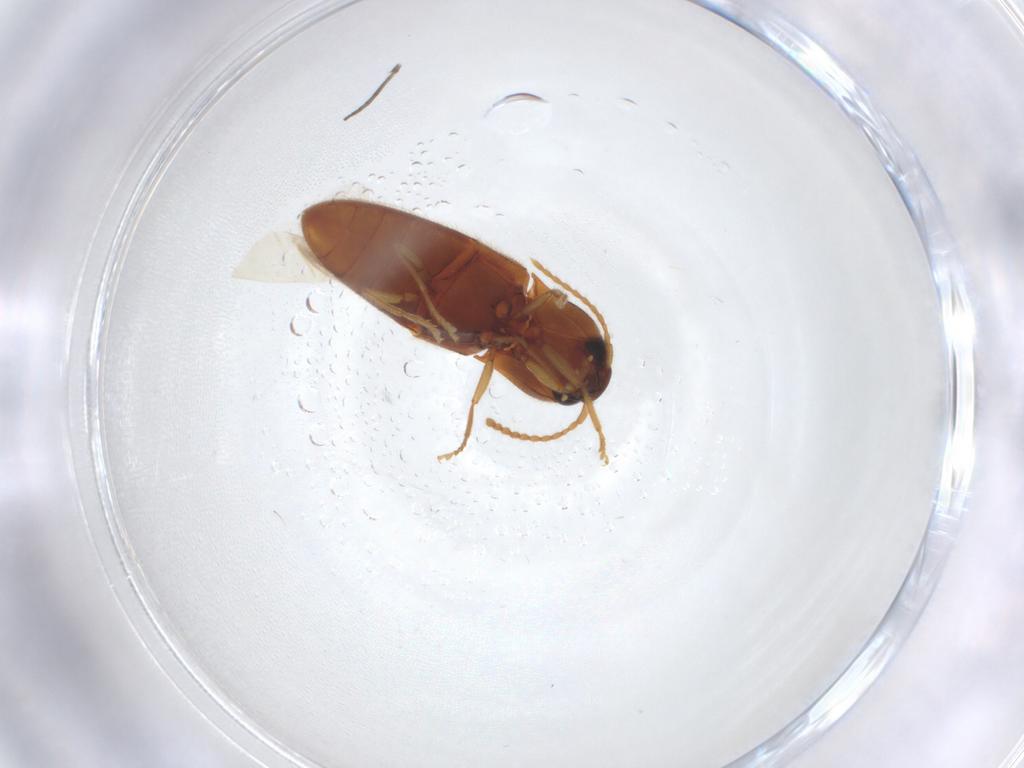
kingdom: Animalia
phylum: Arthropoda
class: Insecta
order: Coleoptera
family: Elateridae
